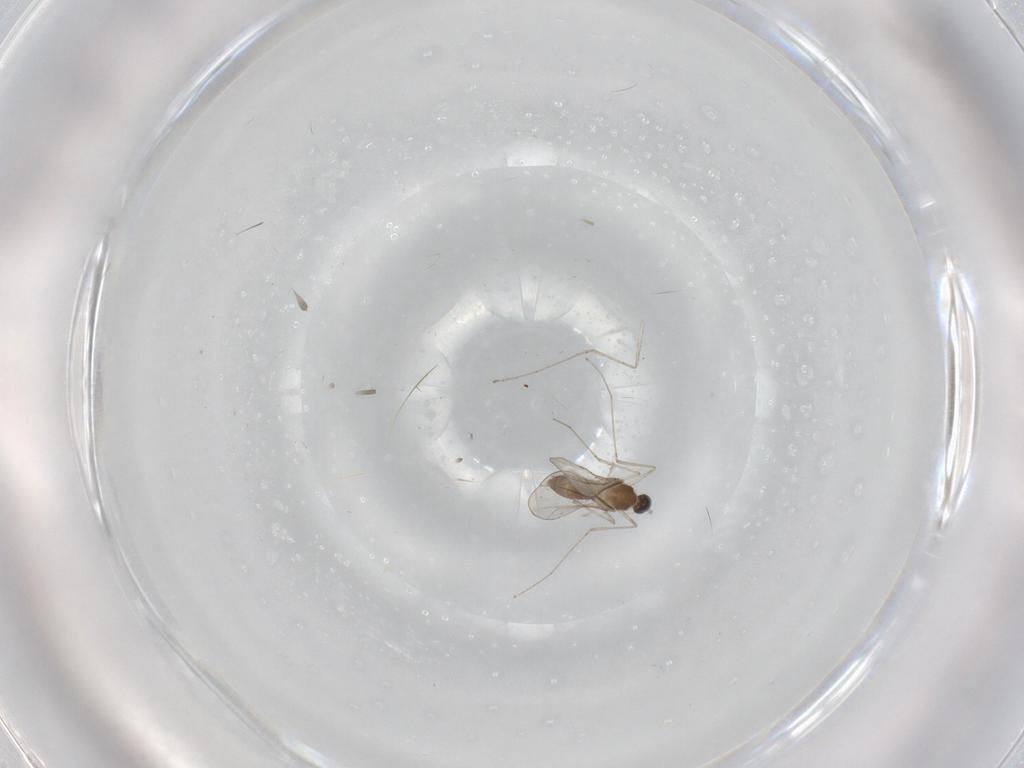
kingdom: Animalia
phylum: Arthropoda
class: Insecta
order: Diptera
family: Cecidomyiidae
